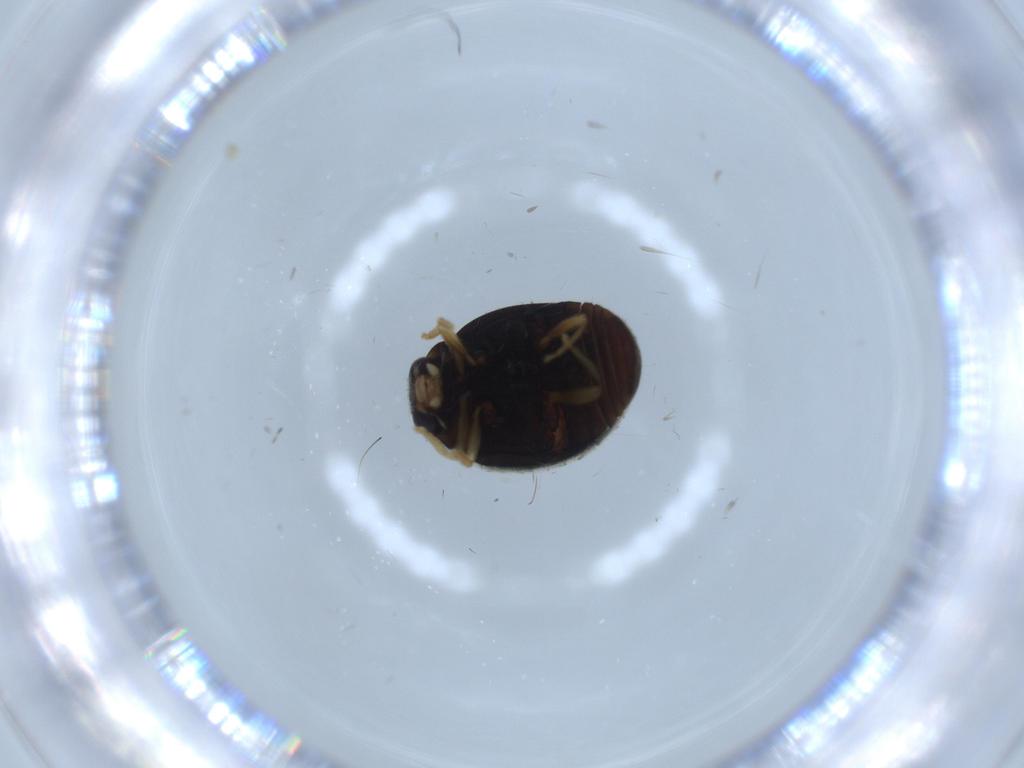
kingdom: Animalia
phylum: Arthropoda
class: Insecta
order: Coleoptera
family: Coccinellidae
